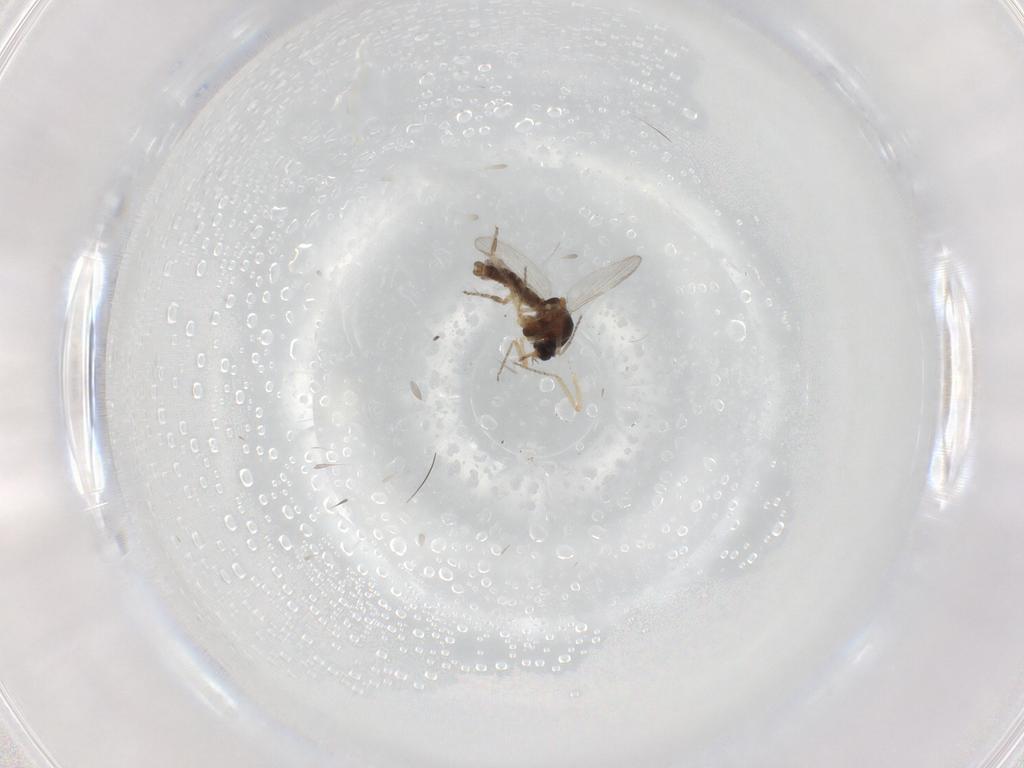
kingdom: Animalia
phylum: Arthropoda
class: Insecta
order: Diptera
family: Ceratopogonidae
